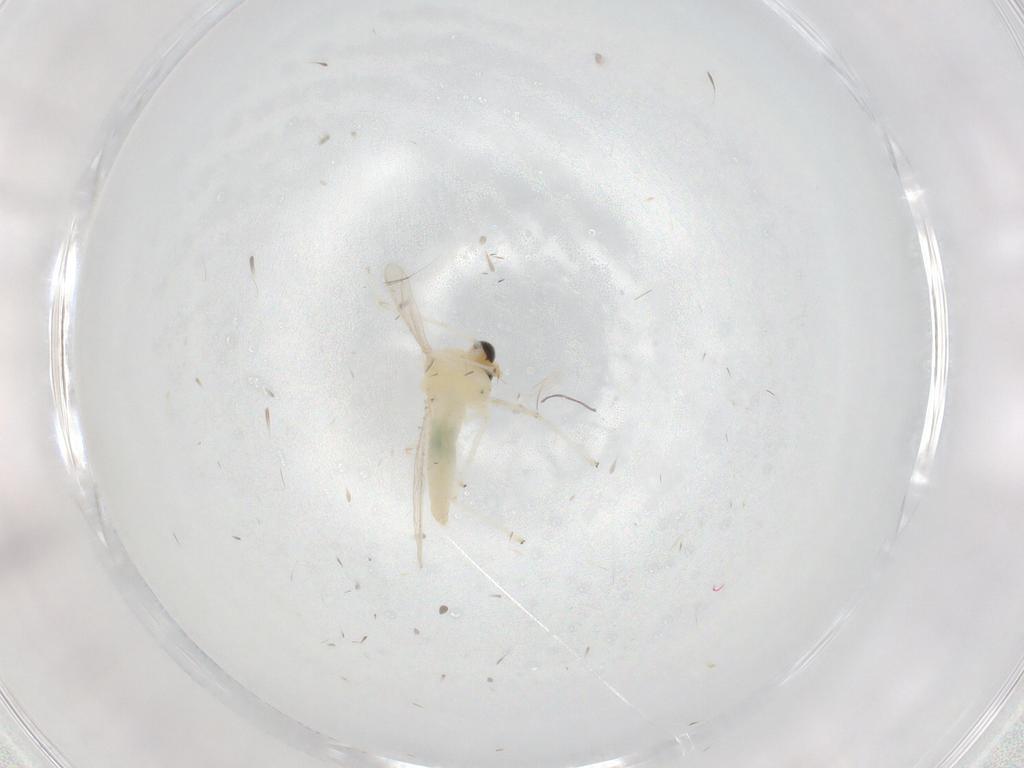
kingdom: Animalia
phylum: Arthropoda
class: Insecta
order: Diptera
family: Chironomidae
